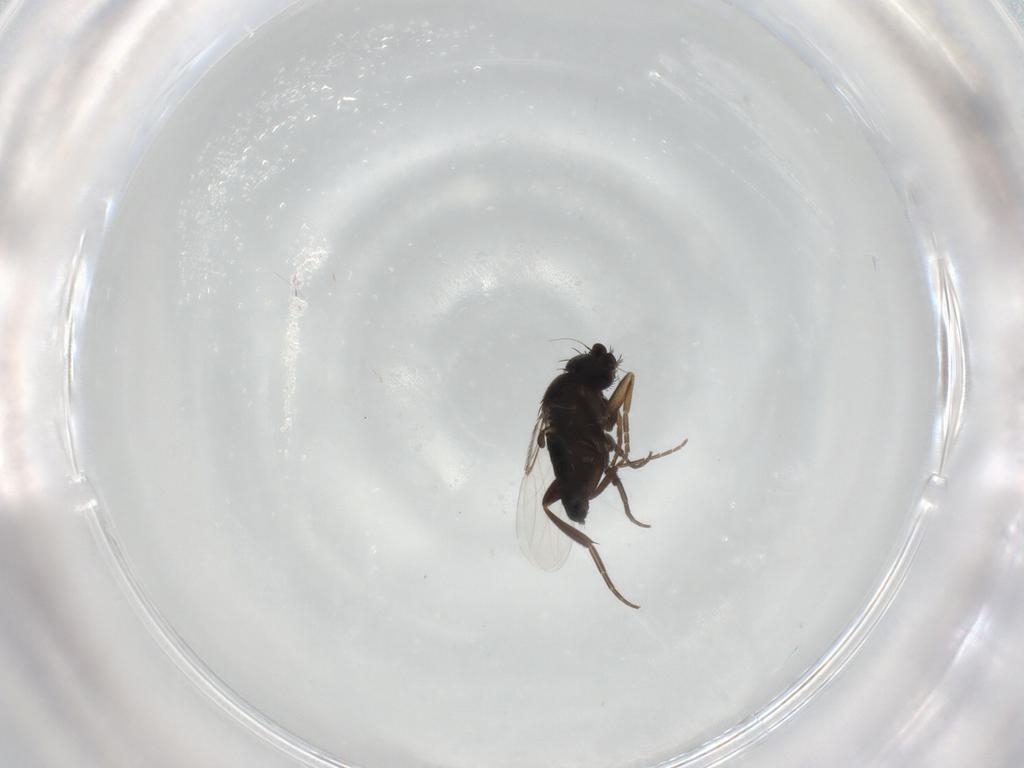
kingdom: Animalia
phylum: Arthropoda
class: Insecta
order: Diptera
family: Phoridae
